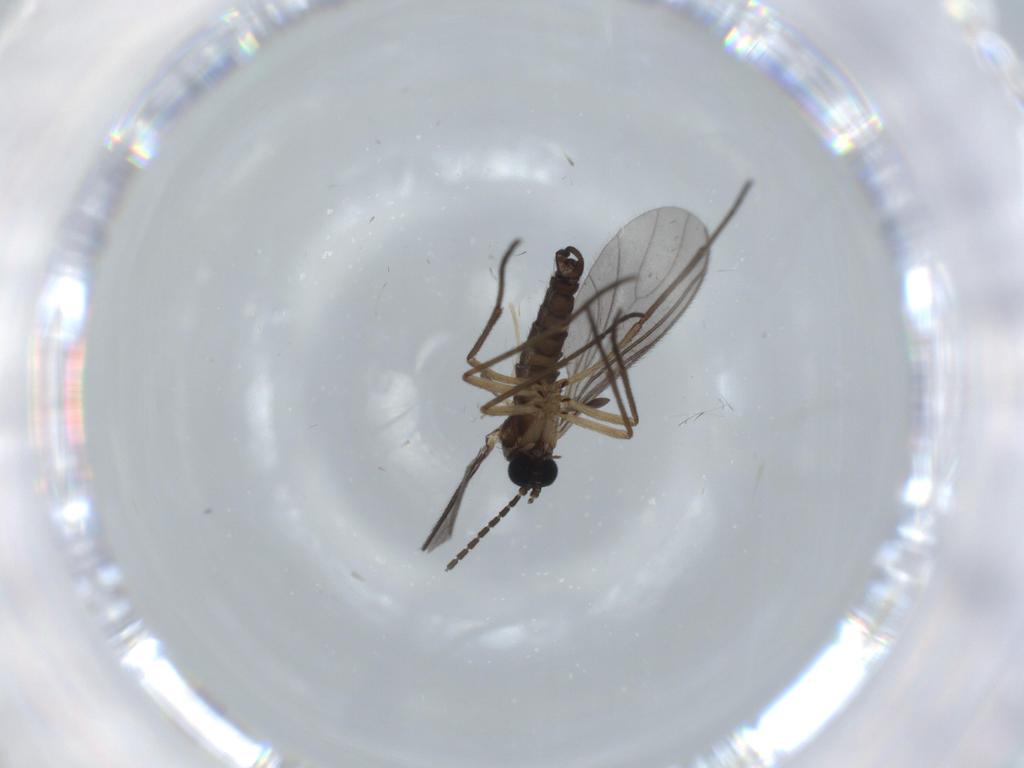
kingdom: Animalia
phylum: Arthropoda
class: Insecta
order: Diptera
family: Sciaridae
